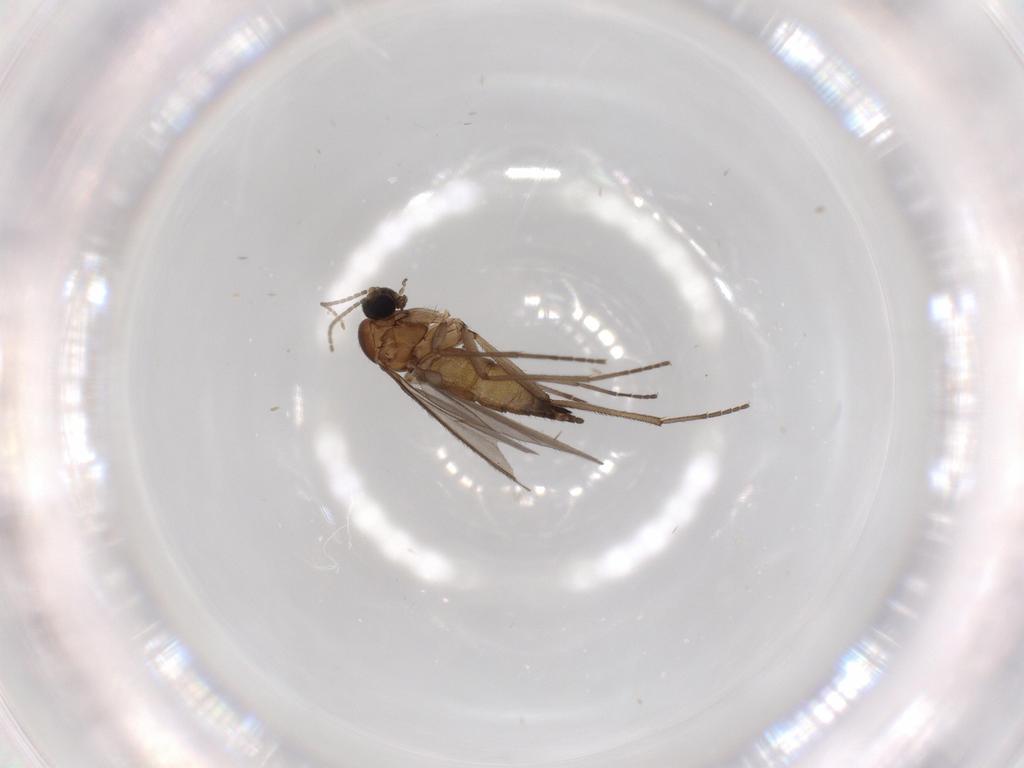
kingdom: Animalia
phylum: Arthropoda
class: Insecta
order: Diptera
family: Sciaridae
